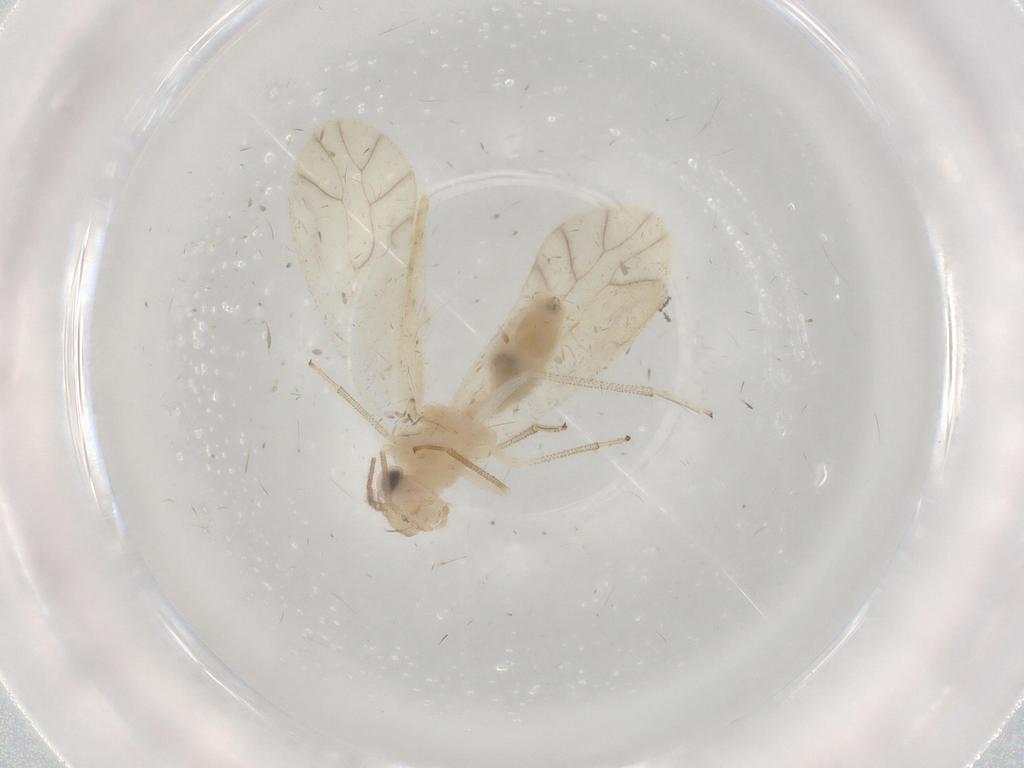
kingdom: Animalia
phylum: Arthropoda
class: Insecta
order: Psocodea
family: Caeciliusidae
